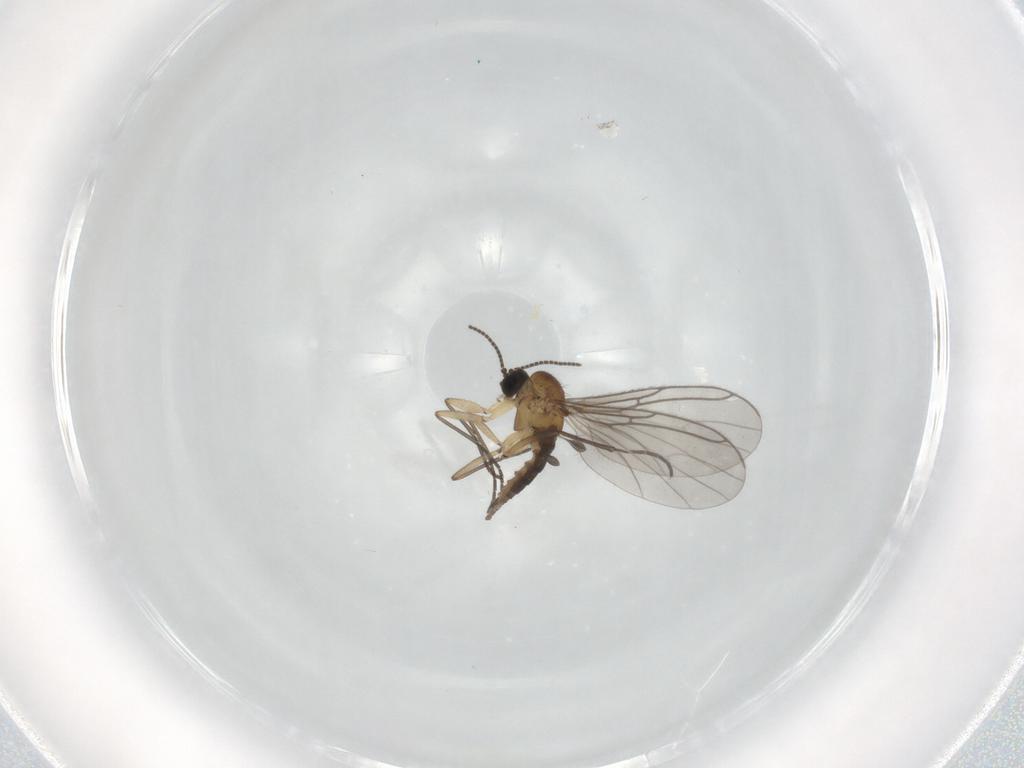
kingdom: Animalia
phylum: Arthropoda
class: Insecta
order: Diptera
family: Sciaridae
